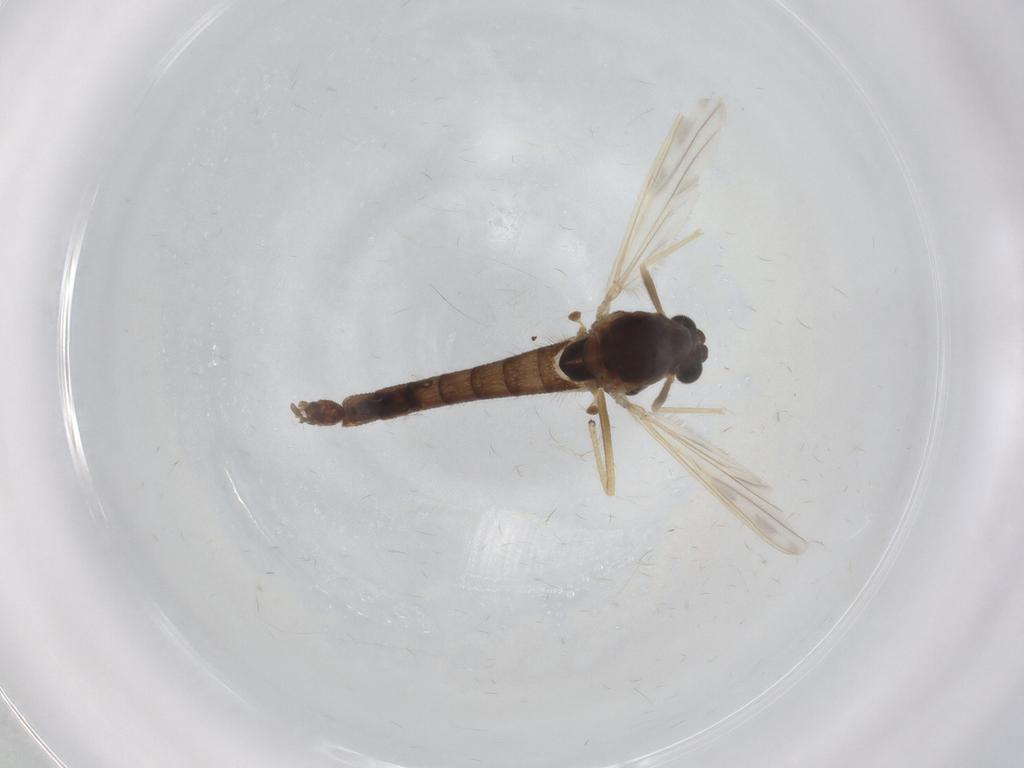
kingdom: Animalia
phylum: Arthropoda
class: Insecta
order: Diptera
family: Chironomidae
